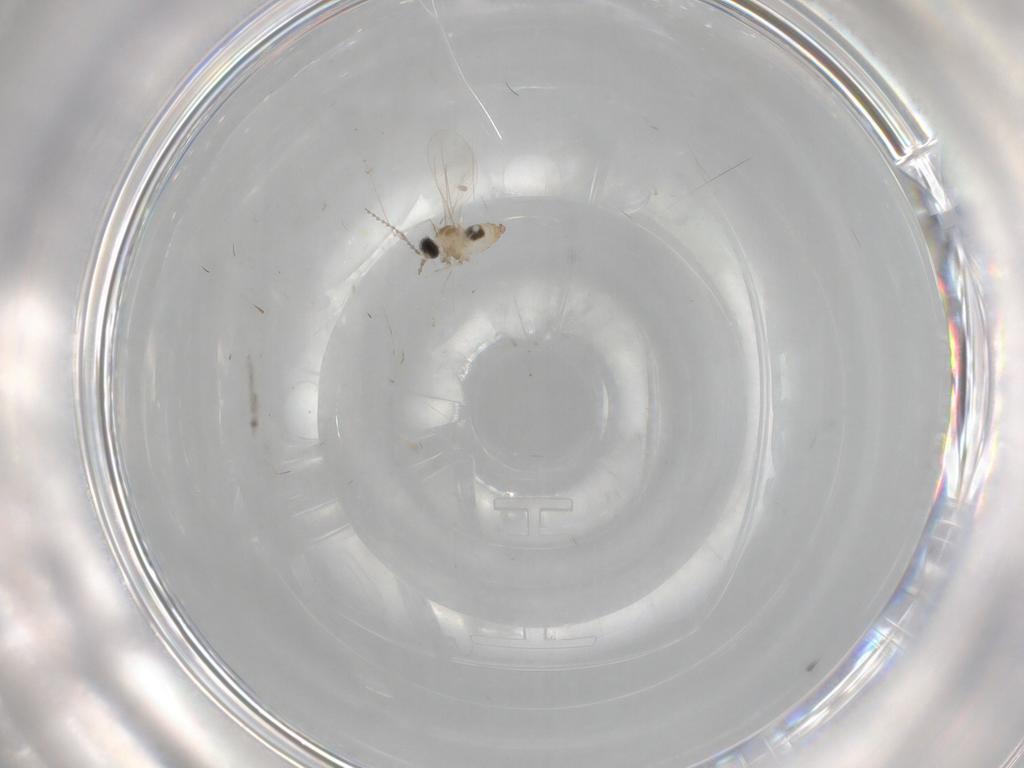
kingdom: Animalia
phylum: Arthropoda
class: Insecta
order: Diptera
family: Cecidomyiidae
